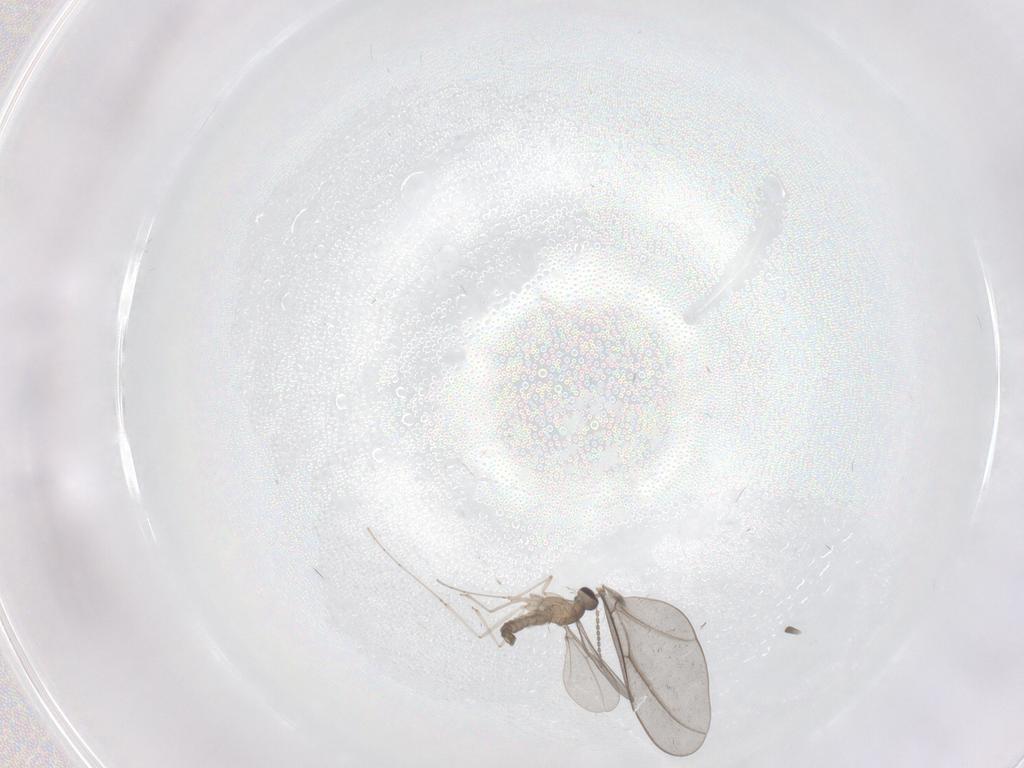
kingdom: Animalia
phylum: Arthropoda
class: Insecta
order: Diptera
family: Cecidomyiidae
